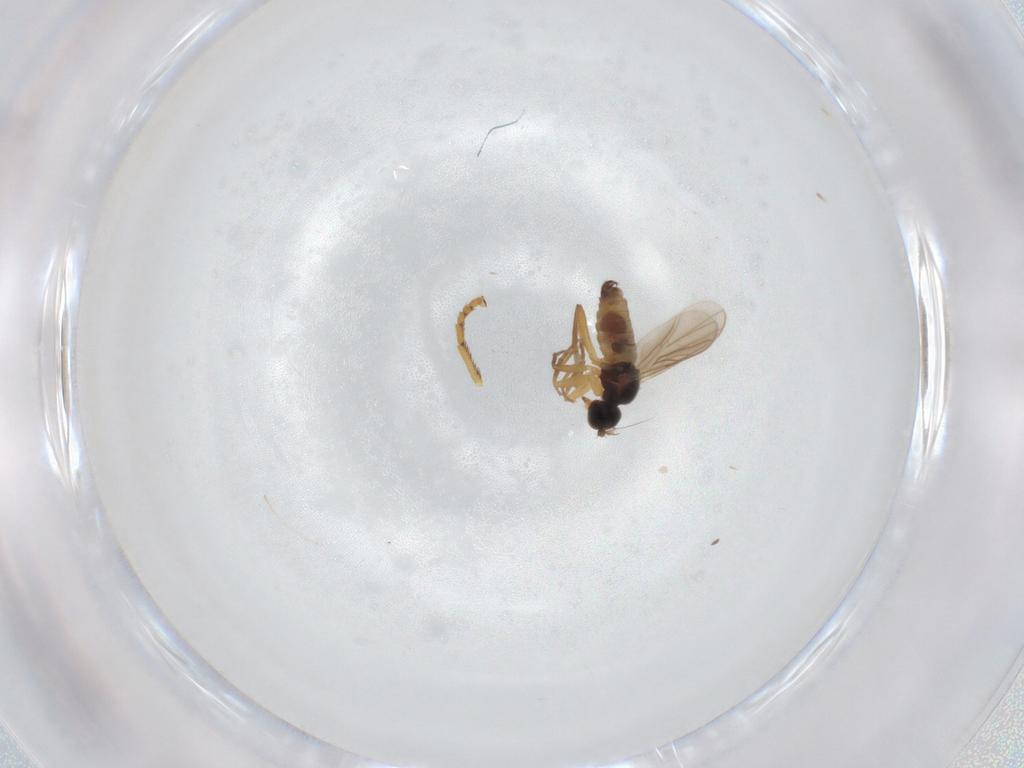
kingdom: Animalia
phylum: Arthropoda
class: Insecta
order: Diptera
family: Hybotidae
